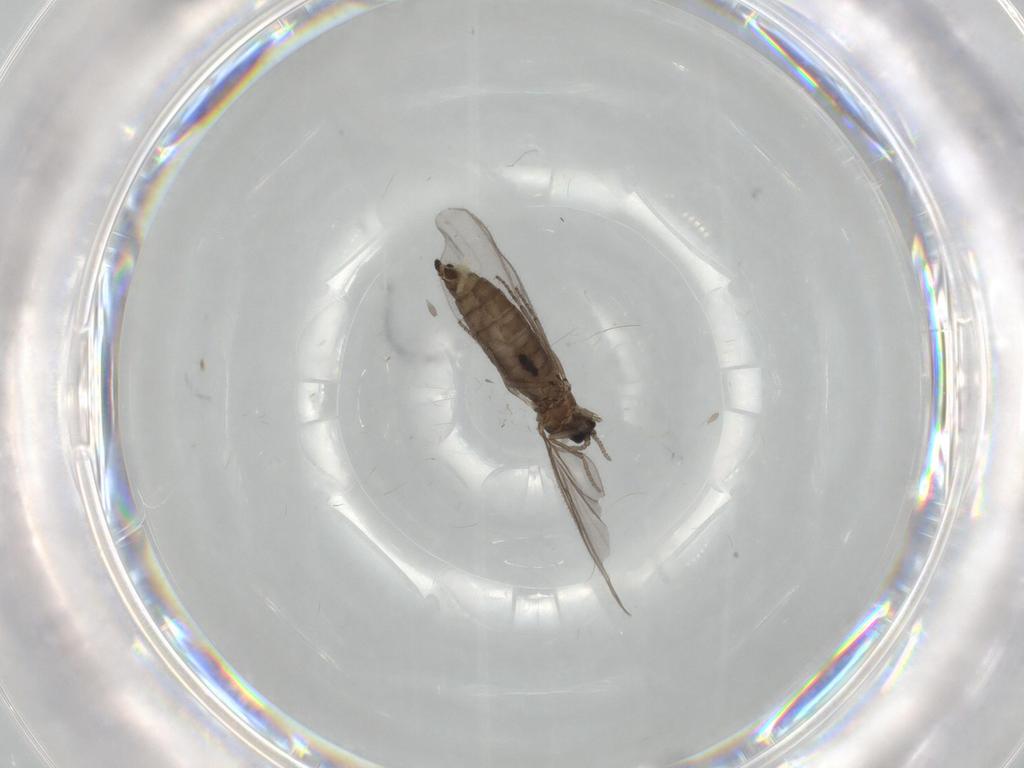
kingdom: Animalia
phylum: Arthropoda
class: Insecta
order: Diptera
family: Sciaridae
